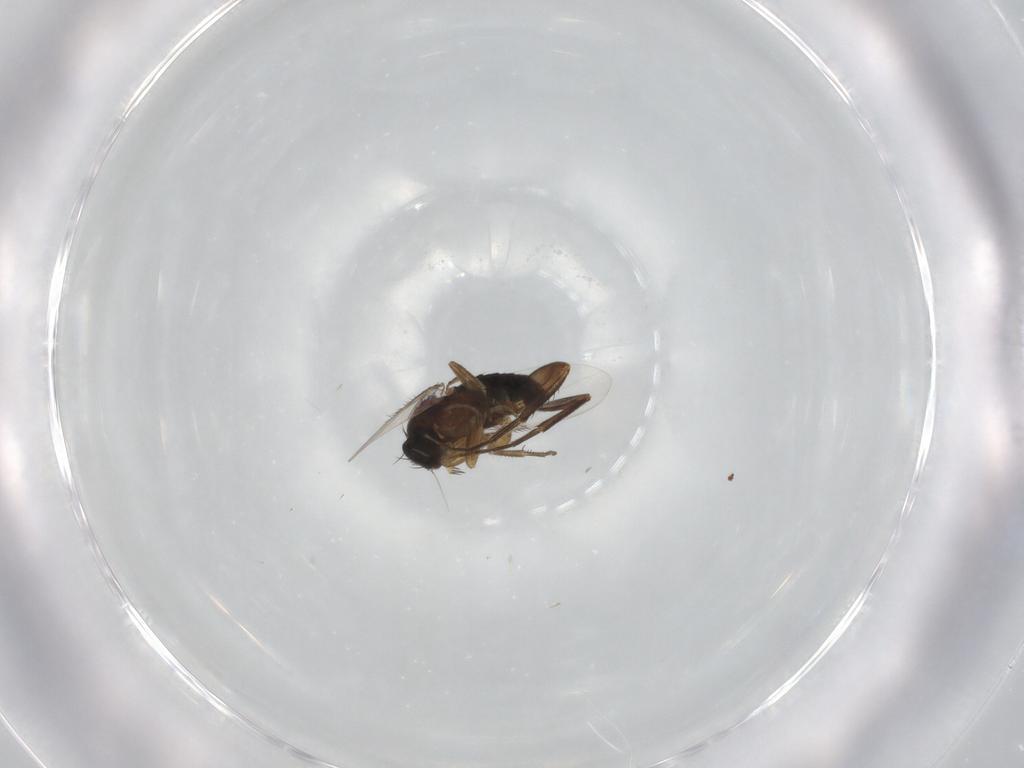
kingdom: Animalia
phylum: Arthropoda
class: Insecta
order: Diptera
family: Phoridae
